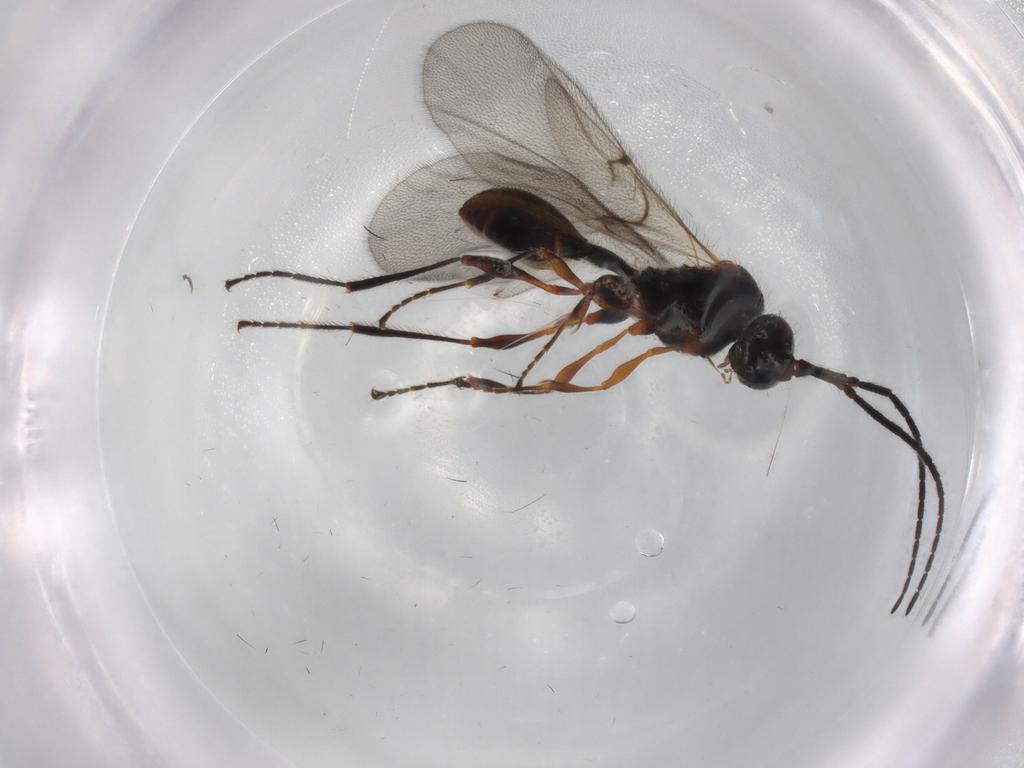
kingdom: Animalia
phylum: Arthropoda
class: Insecta
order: Hymenoptera
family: Diapriidae
